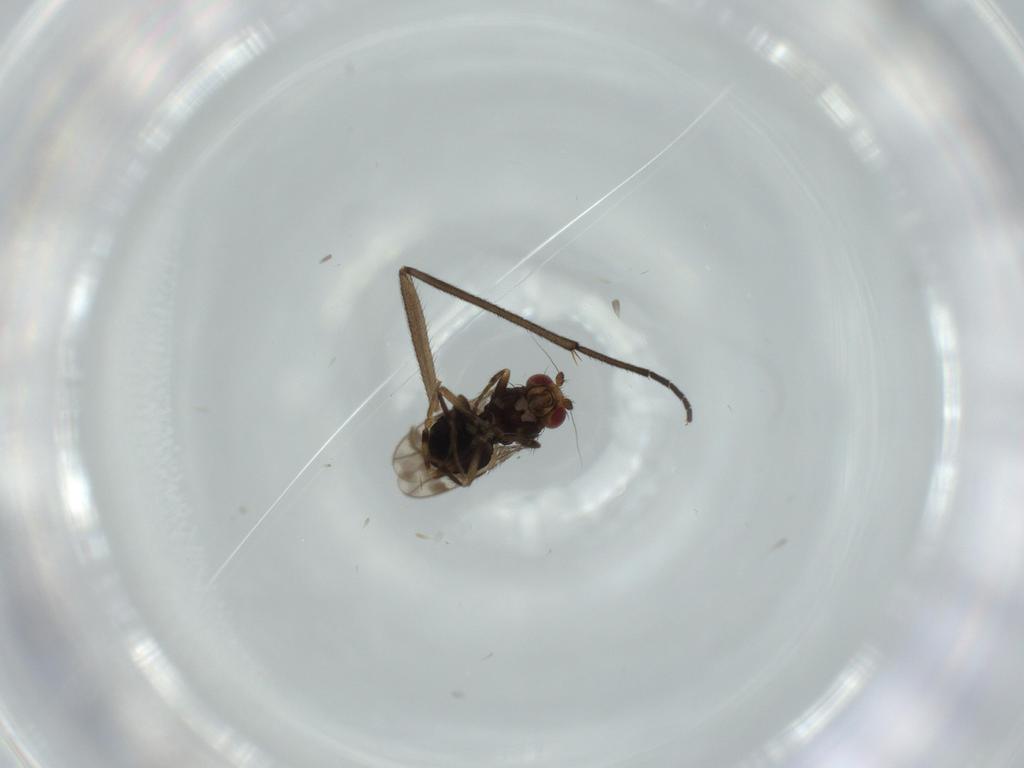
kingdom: Animalia
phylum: Arthropoda
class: Insecta
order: Diptera
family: Sphaeroceridae
